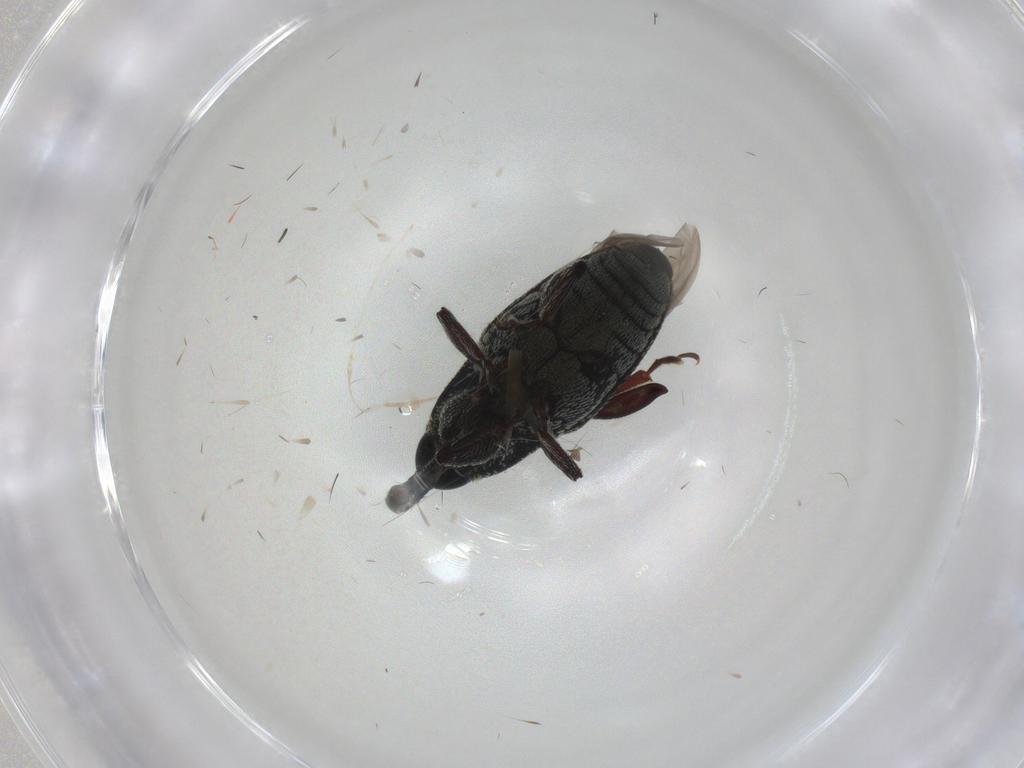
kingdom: Animalia
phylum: Arthropoda
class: Insecta
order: Coleoptera
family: Curculionidae
